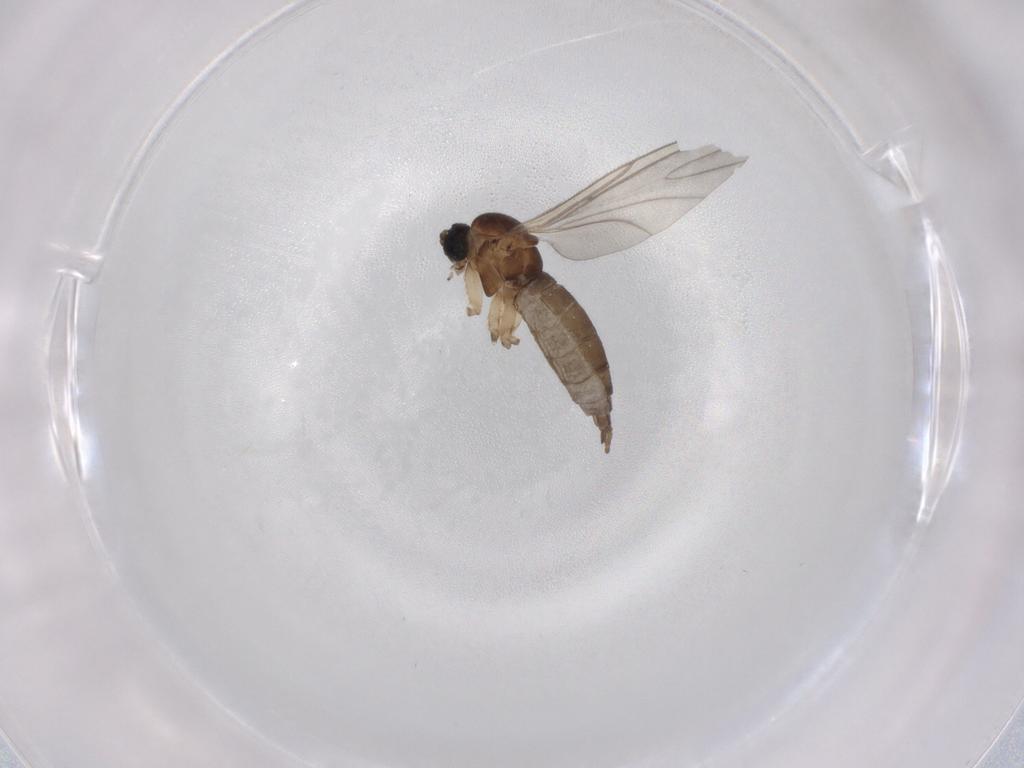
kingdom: Animalia
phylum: Arthropoda
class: Insecta
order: Diptera
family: Sciaridae
